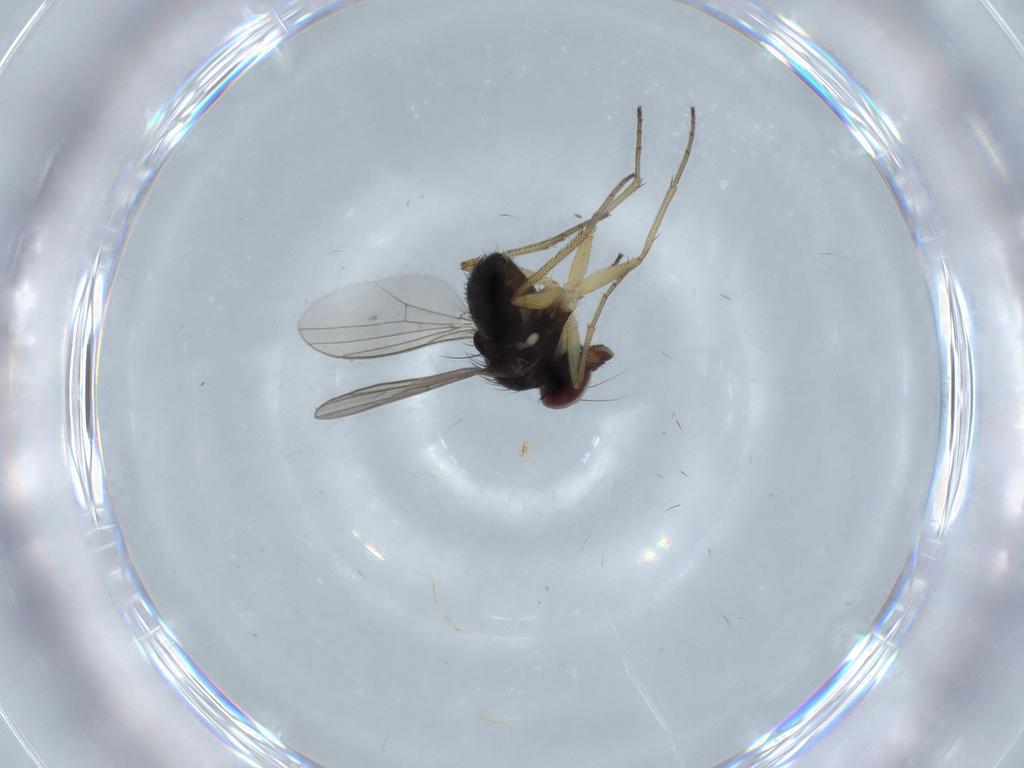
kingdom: Animalia
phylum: Arthropoda
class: Insecta
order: Diptera
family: Dolichopodidae
